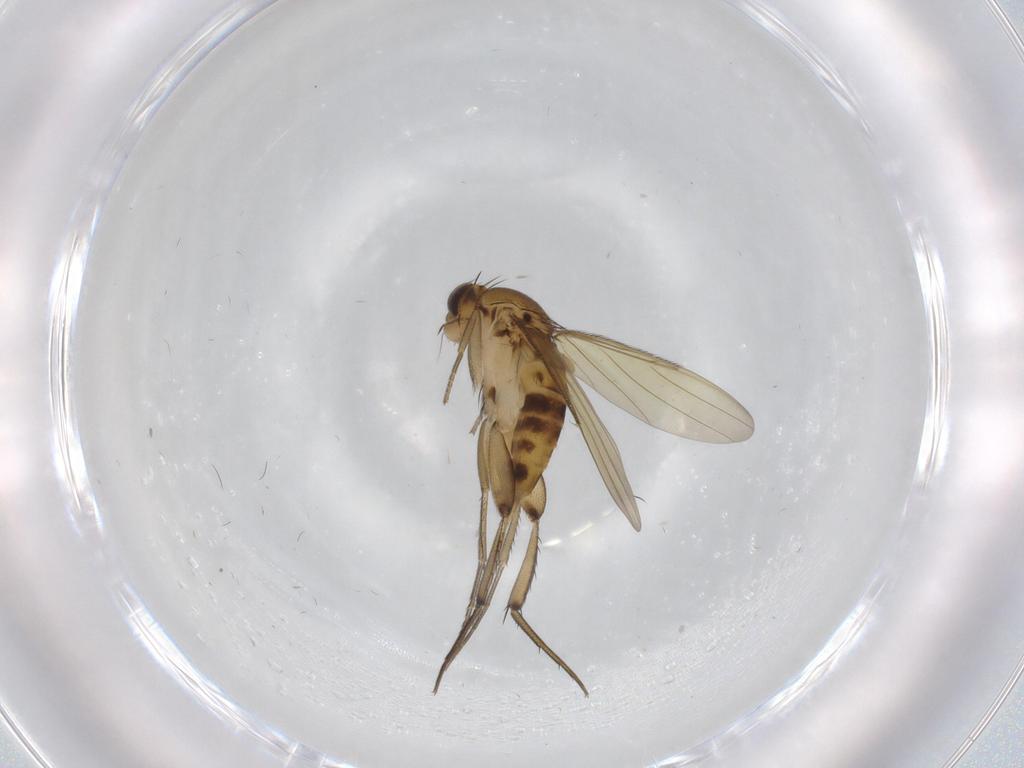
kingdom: Animalia
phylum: Arthropoda
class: Insecta
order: Diptera
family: Phoridae
